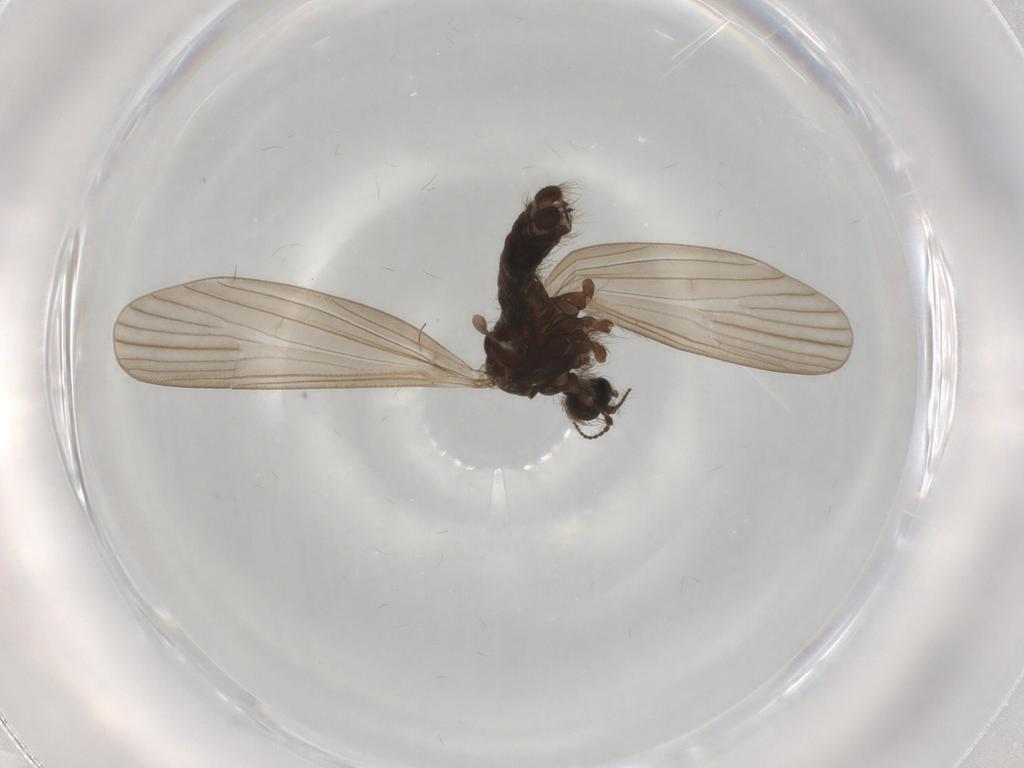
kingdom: Animalia
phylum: Arthropoda
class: Insecta
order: Diptera
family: Limoniidae
